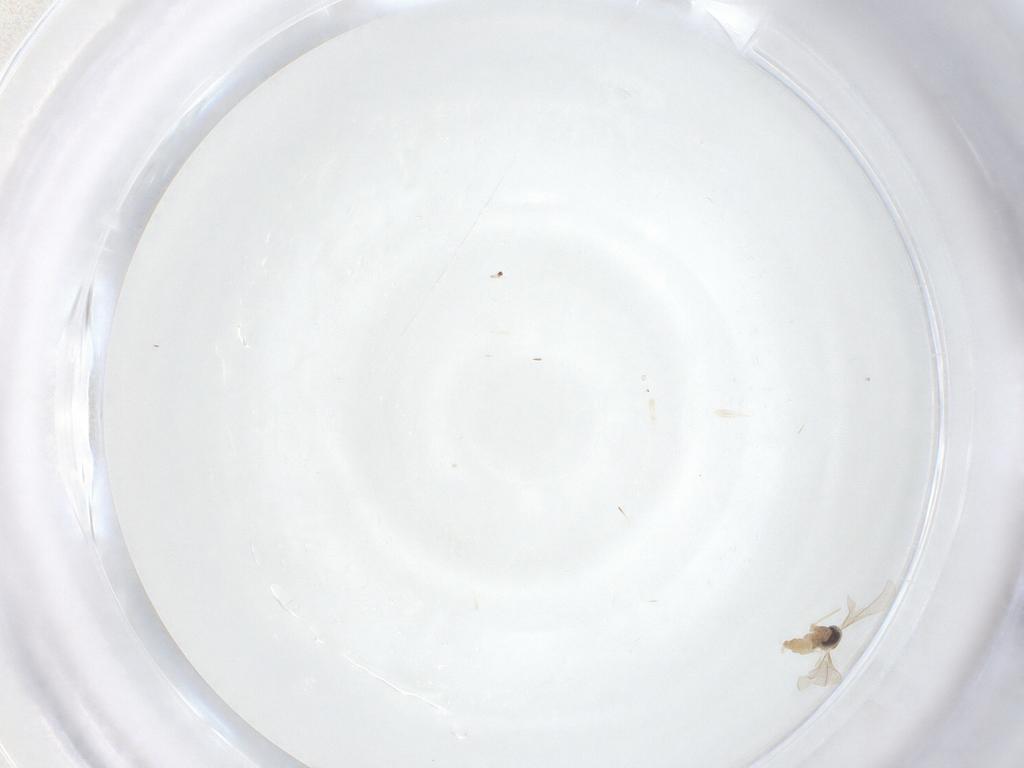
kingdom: Animalia
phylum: Arthropoda
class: Insecta
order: Diptera
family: Cecidomyiidae
